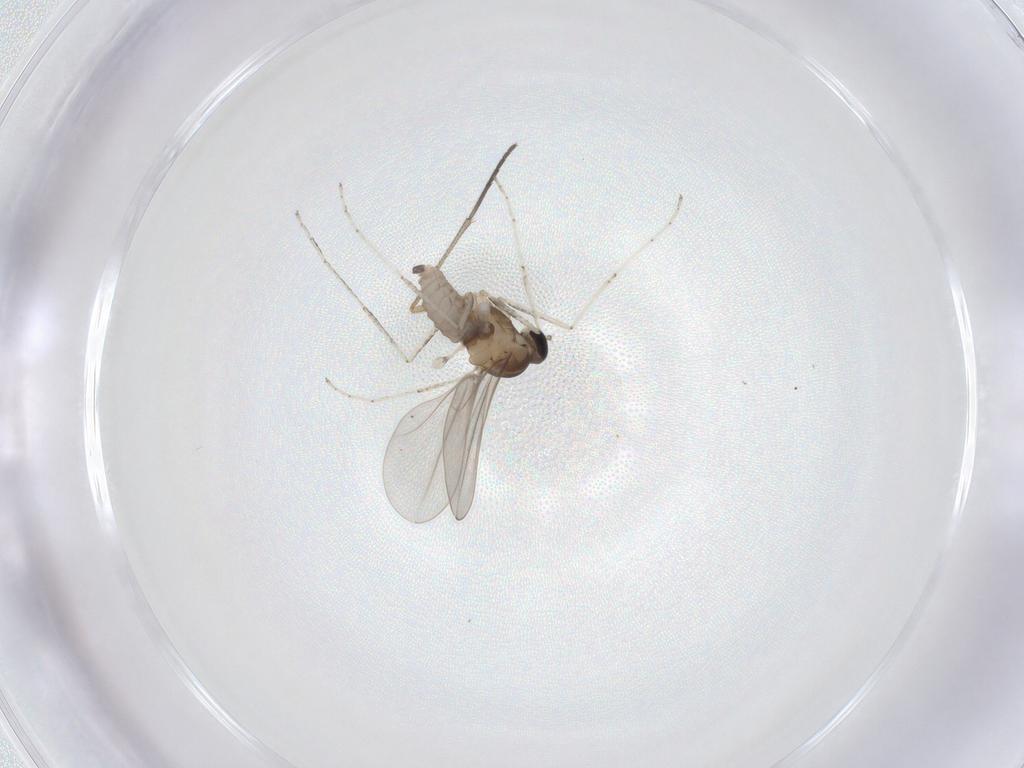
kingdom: Animalia
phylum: Arthropoda
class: Insecta
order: Diptera
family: Cecidomyiidae
